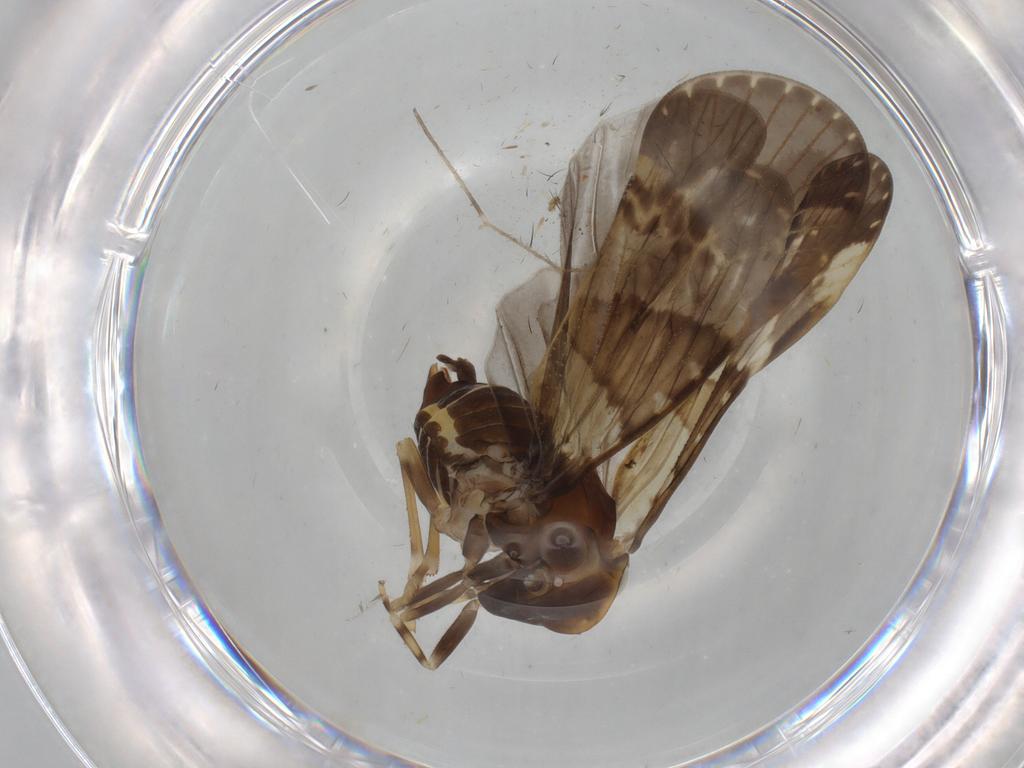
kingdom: Animalia
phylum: Arthropoda
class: Insecta
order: Hemiptera
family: Cixiidae
